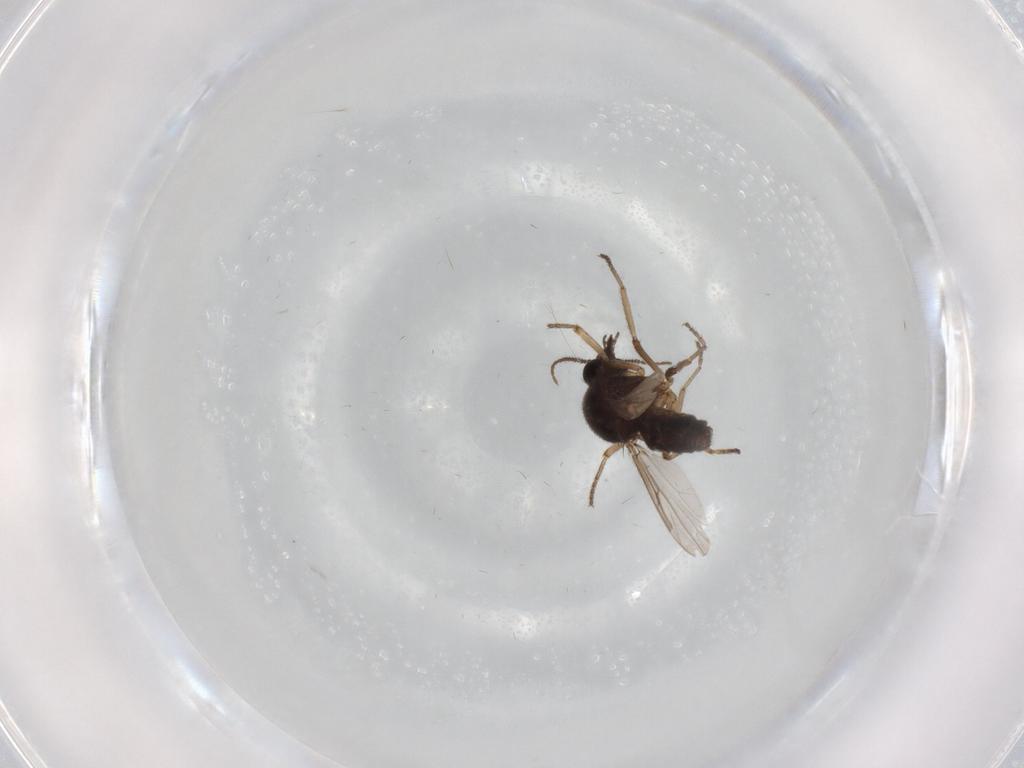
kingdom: Animalia
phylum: Arthropoda
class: Insecta
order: Diptera
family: Ceratopogonidae
